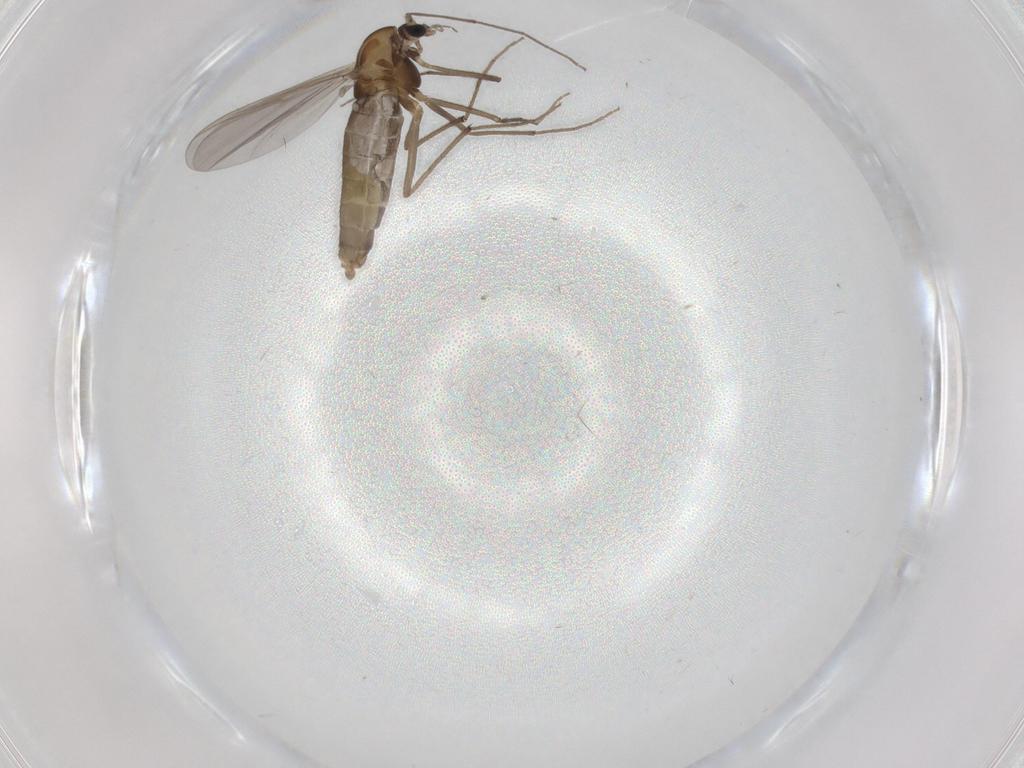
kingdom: Animalia
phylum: Arthropoda
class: Insecta
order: Diptera
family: Chironomidae
